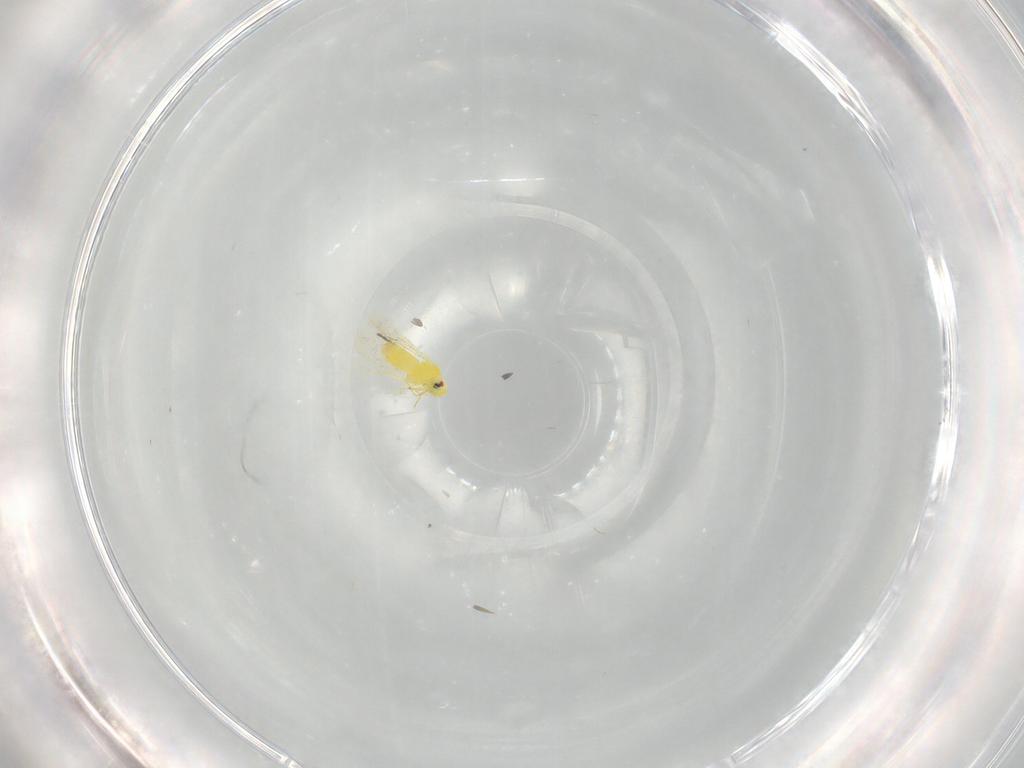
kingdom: Animalia
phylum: Arthropoda
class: Insecta
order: Hemiptera
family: Aleyrodidae
